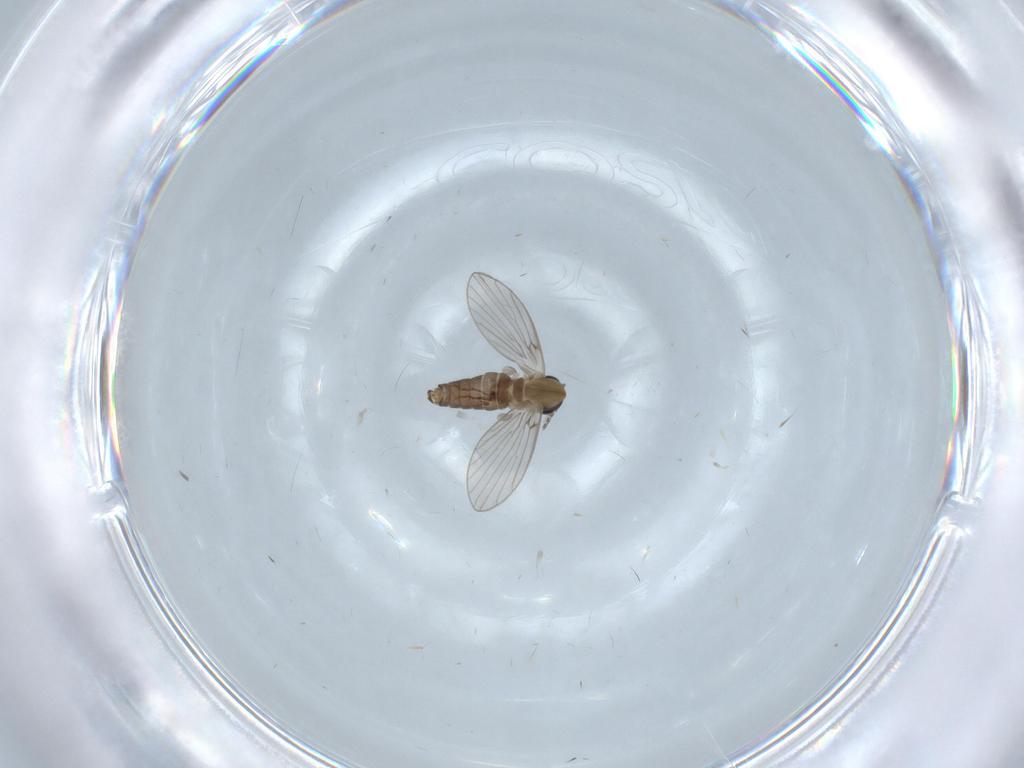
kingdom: Animalia
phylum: Arthropoda
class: Insecta
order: Diptera
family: Psychodidae
